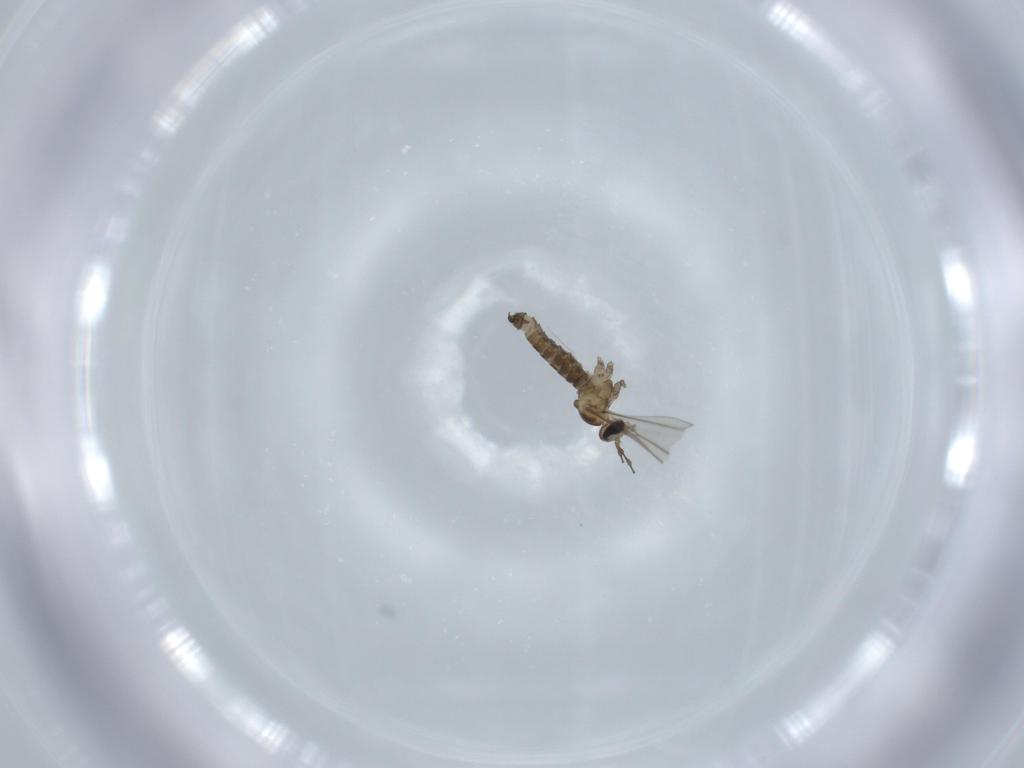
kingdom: Animalia
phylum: Arthropoda
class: Insecta
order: Diptera
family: Cecidomyiidae
